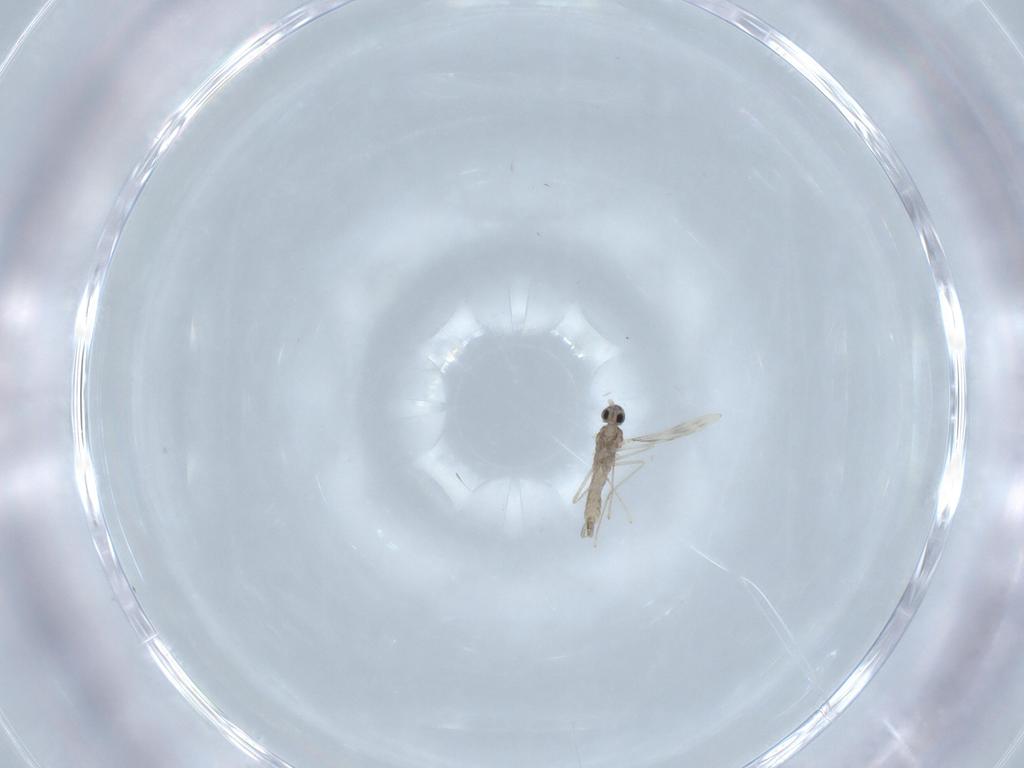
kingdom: Animalia
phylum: Arthropoda
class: Insecta
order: Diptera
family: Cecidomyiidae
